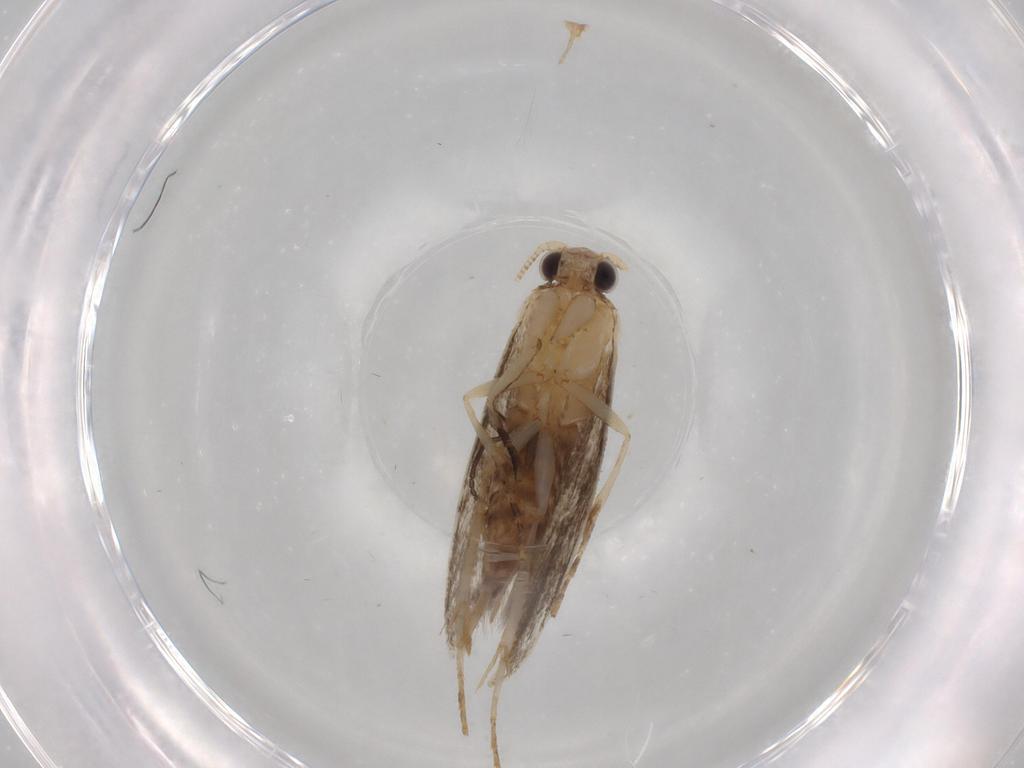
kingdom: Animalia
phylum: Arthropoda
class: Insecta
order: Lepidoptera
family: Tineidae
